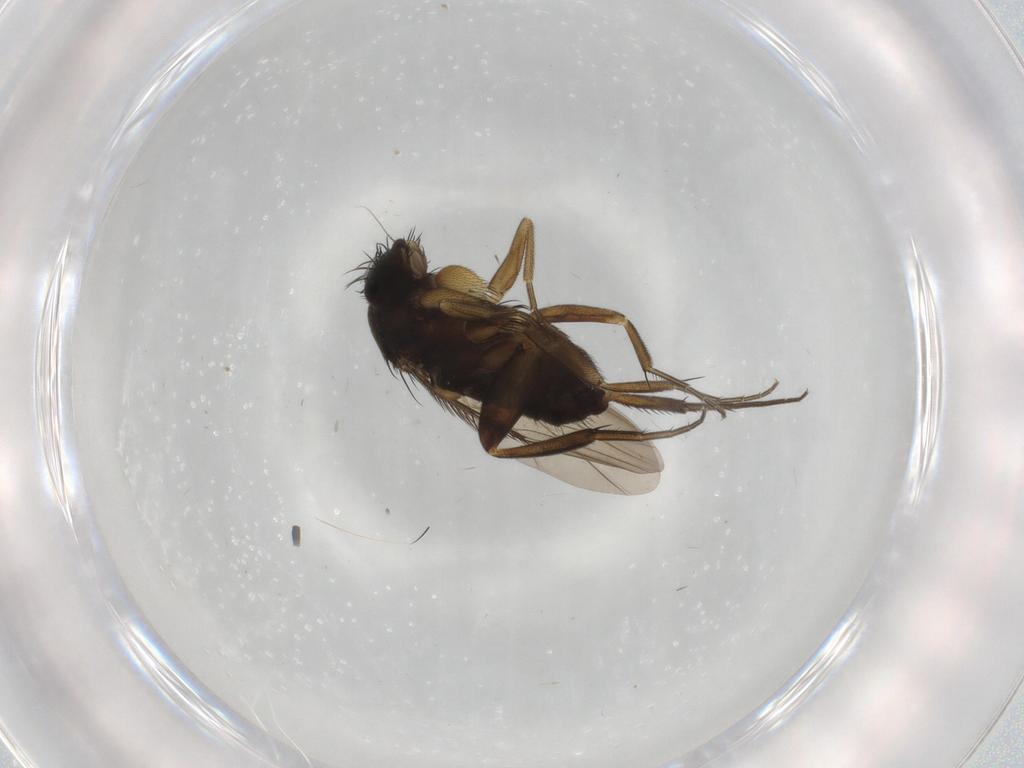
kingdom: Animalia
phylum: Arthropoda
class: Insecta
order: Diptera
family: Phoridae
